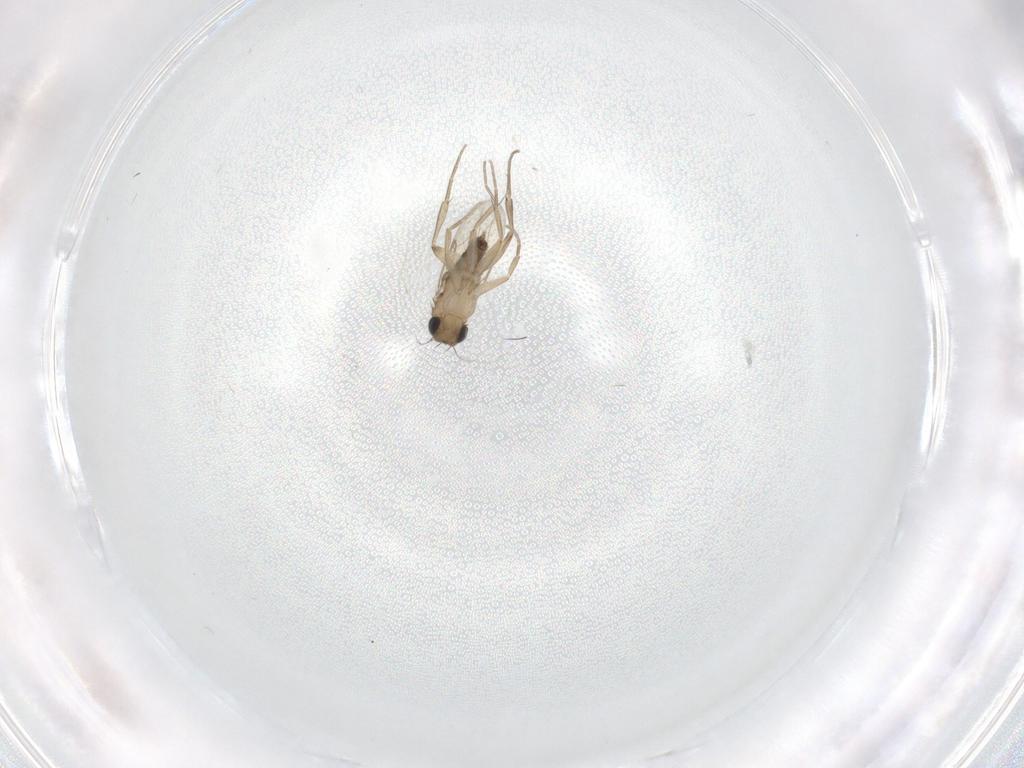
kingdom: Animalia
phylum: Arthropoda
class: Insecta
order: Diptera
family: Phoridae
